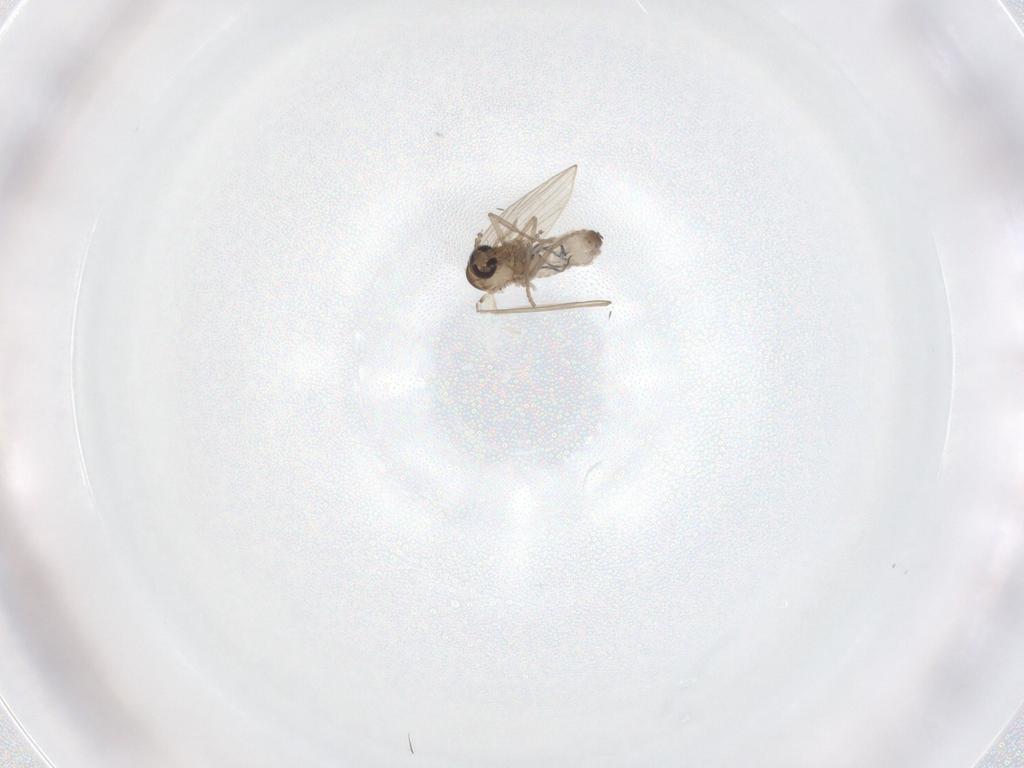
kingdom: Animalia
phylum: Arthropoda
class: Insecta
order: Diptera
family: Psychodidae
